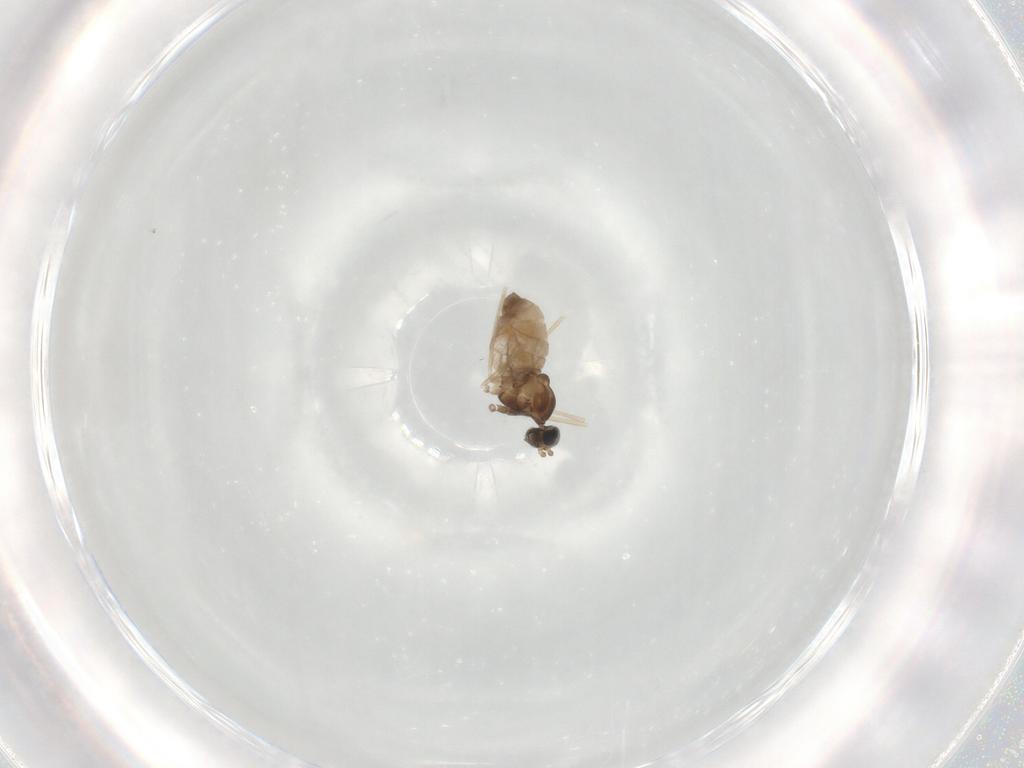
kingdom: Animalia
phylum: Arthropoda
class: Insecta
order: Diptera
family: Cecidomyiidae
